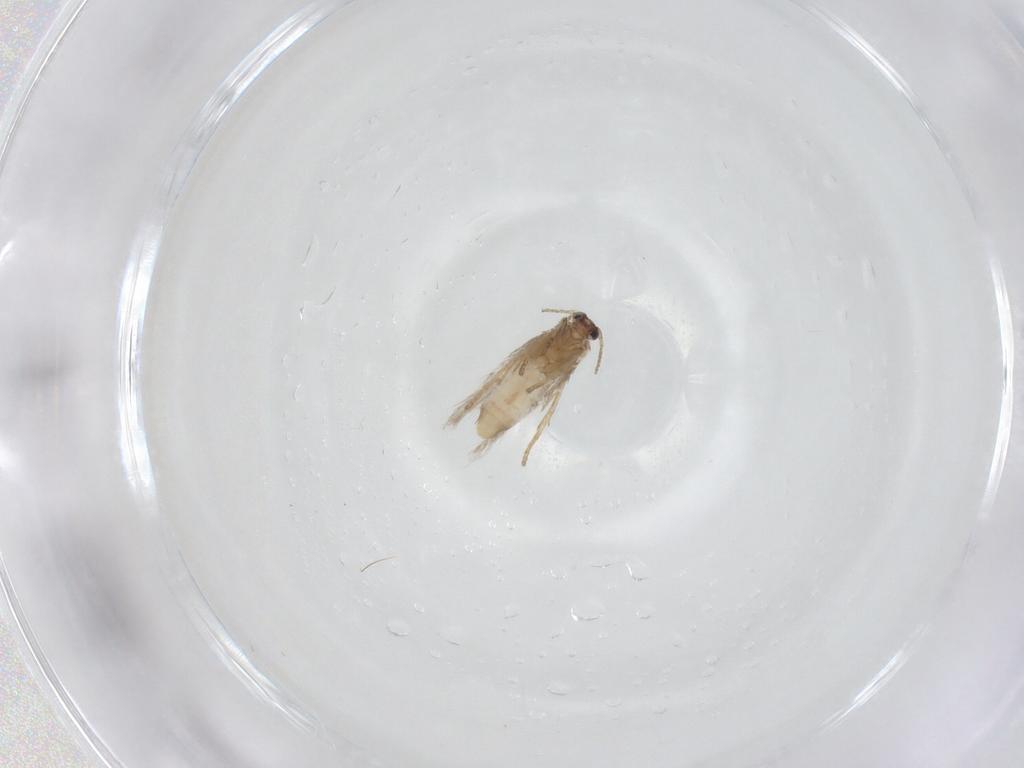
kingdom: Animalia
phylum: Arthropoda
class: Insecta
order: Lepidoptera
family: Nepticulidae
